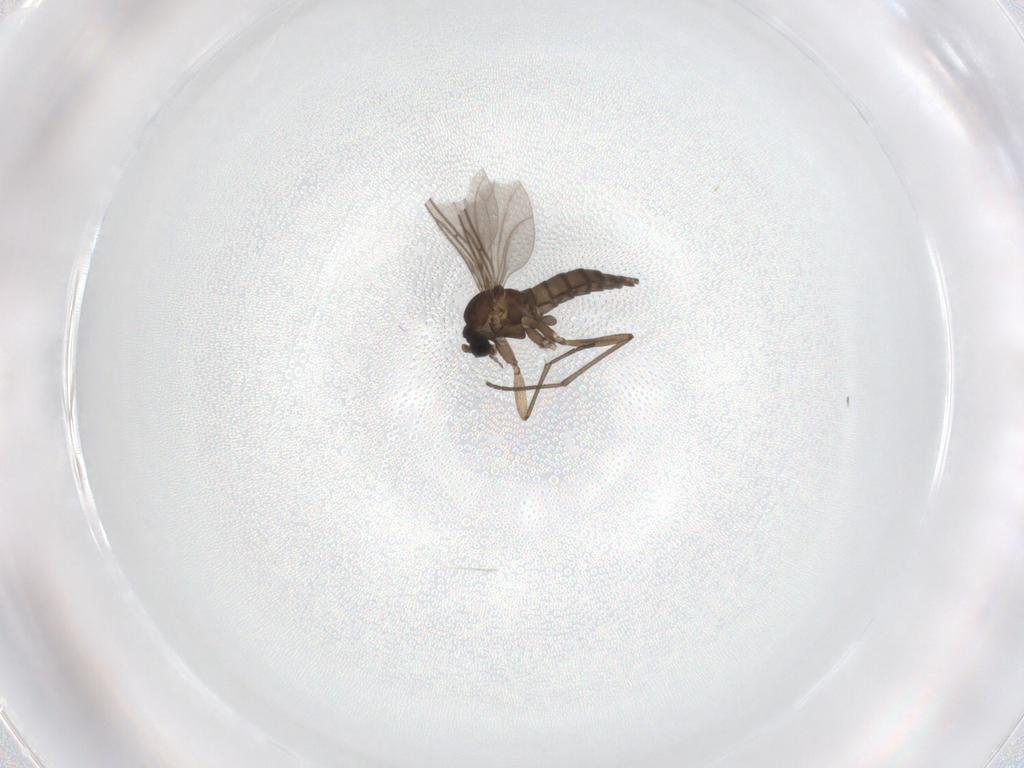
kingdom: Animalia
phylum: Arthropoda
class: Insecta
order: Diptera
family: Sciaridae
